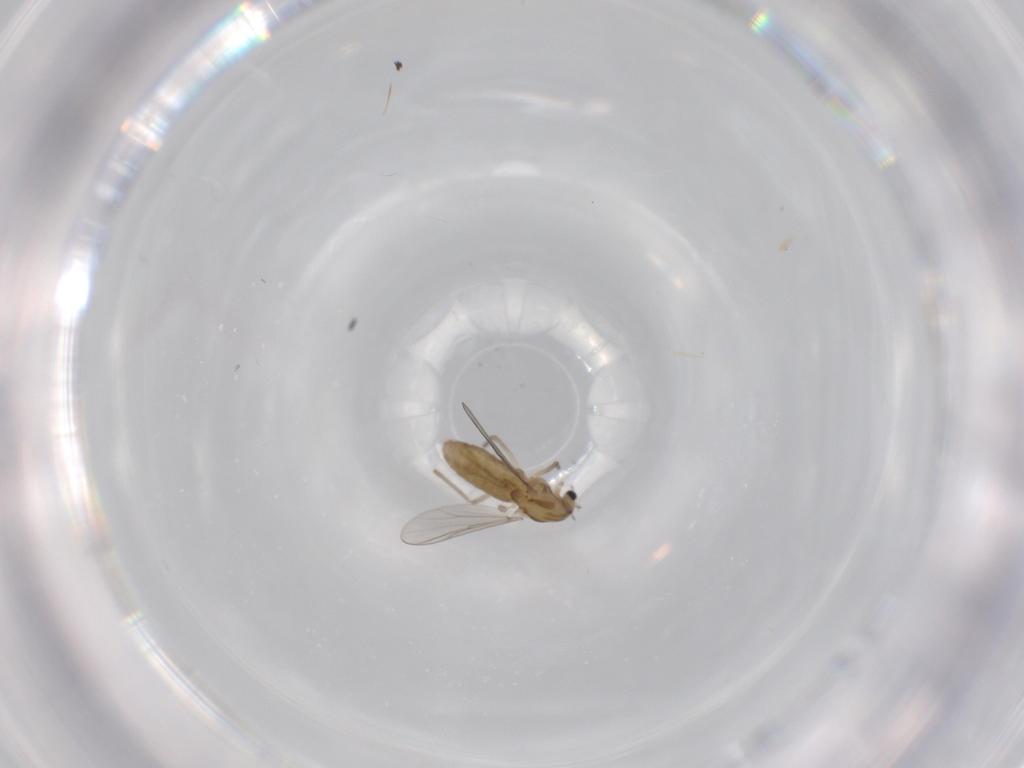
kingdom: Animalia
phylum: Arthropoda
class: Insecta
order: Diptera
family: Chironomidae
